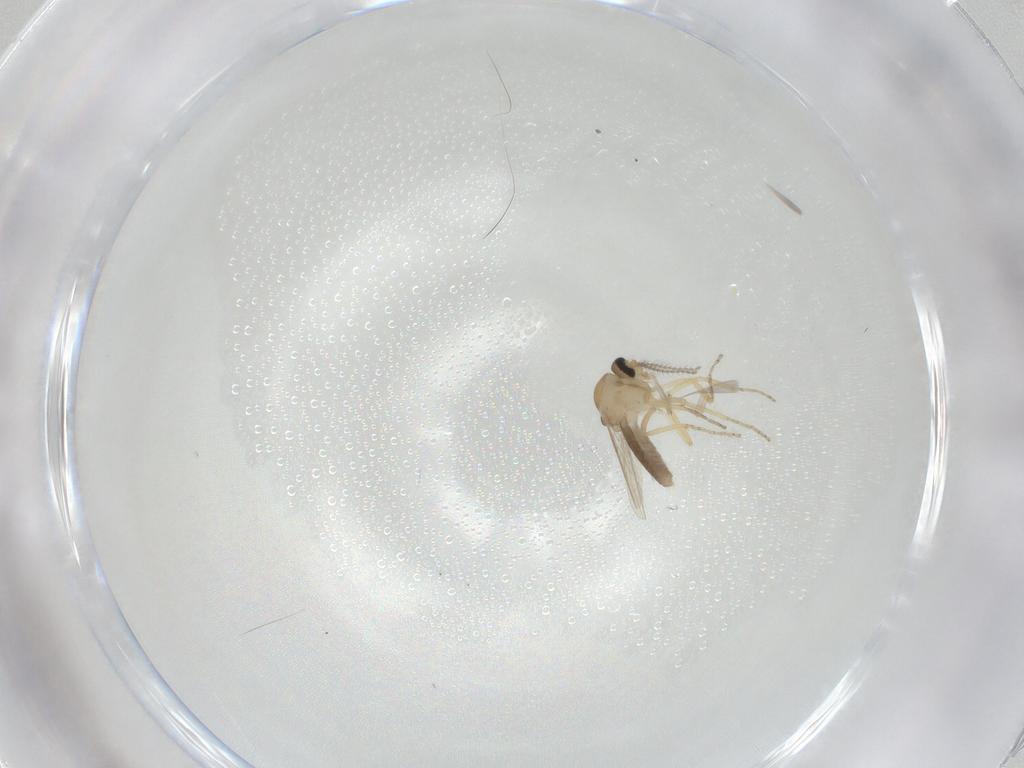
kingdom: Animalia
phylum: Arthropoda
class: Insecta
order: Diptera
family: Ceratopogonidae
